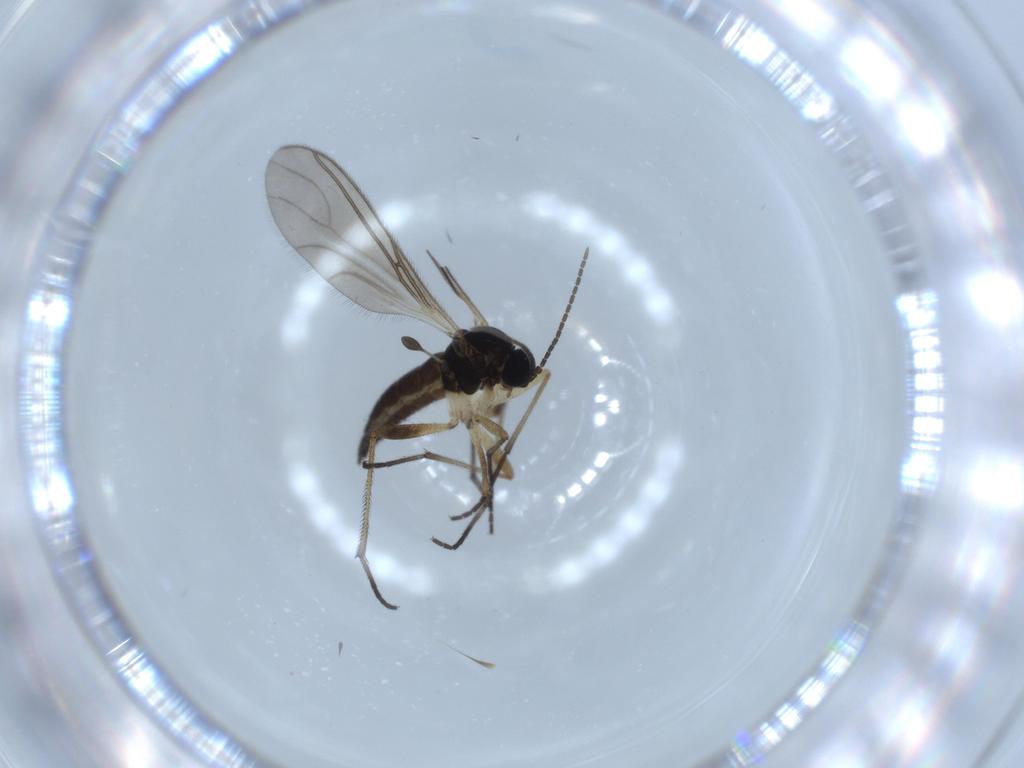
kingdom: Animalia
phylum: Arthropoda
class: Insecta
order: Diptera
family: Sciaridae
